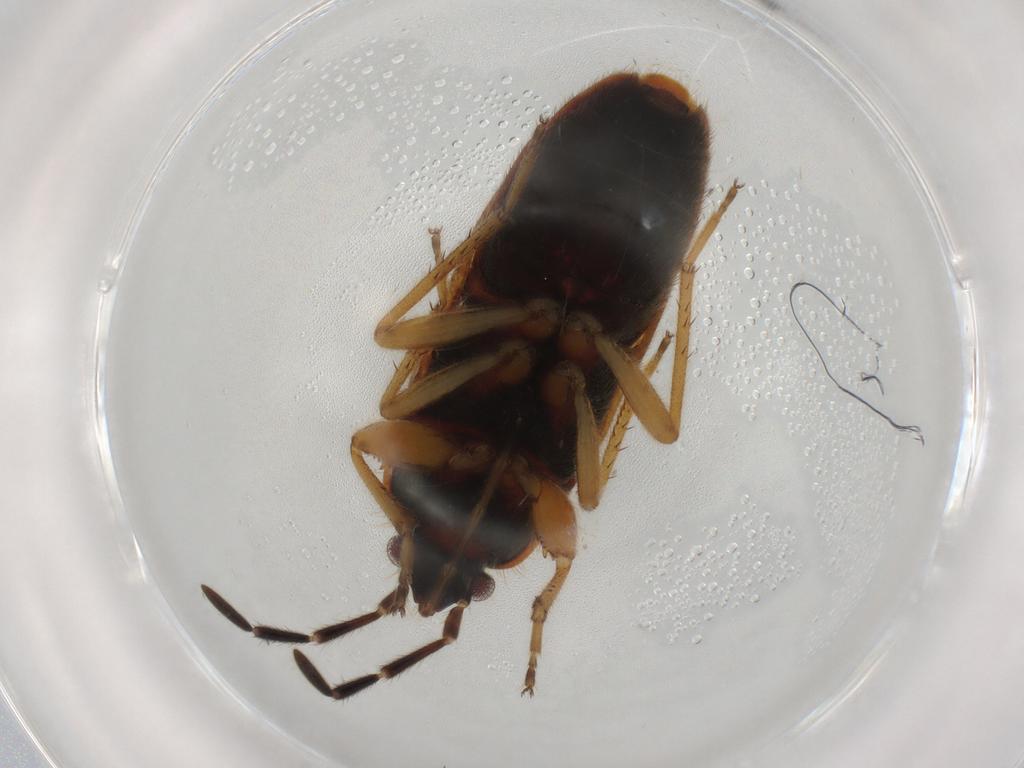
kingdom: Animalia
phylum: Arthropoda
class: Insecta
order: Hemiptera
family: Rhyparochromidae
